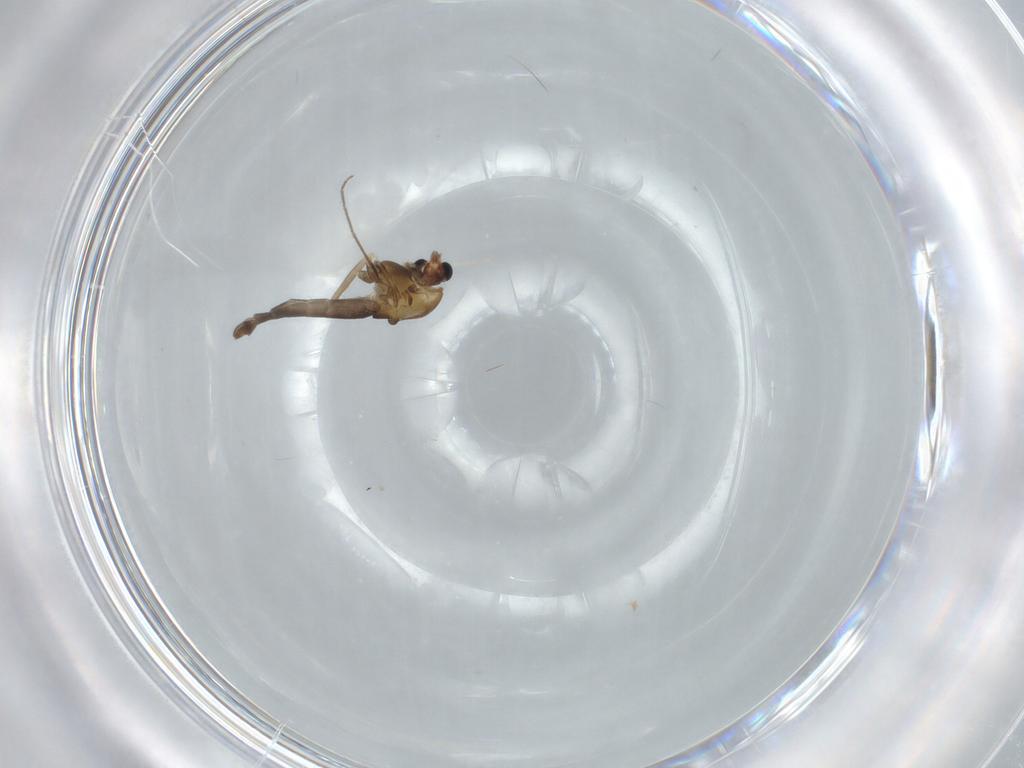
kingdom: Animalia
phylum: Arthropoda
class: Insecta
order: Diptera
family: Chironomidae
